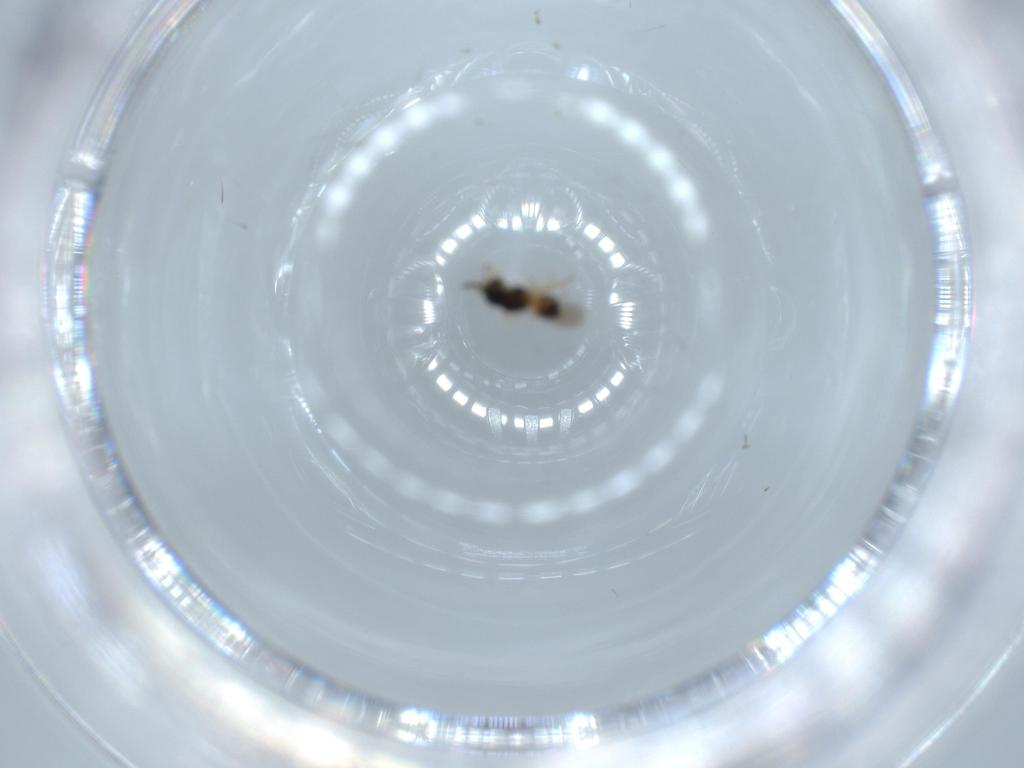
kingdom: Animalia
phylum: Arthropoda
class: Insecta
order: Hymenoptera
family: Scelionidae
